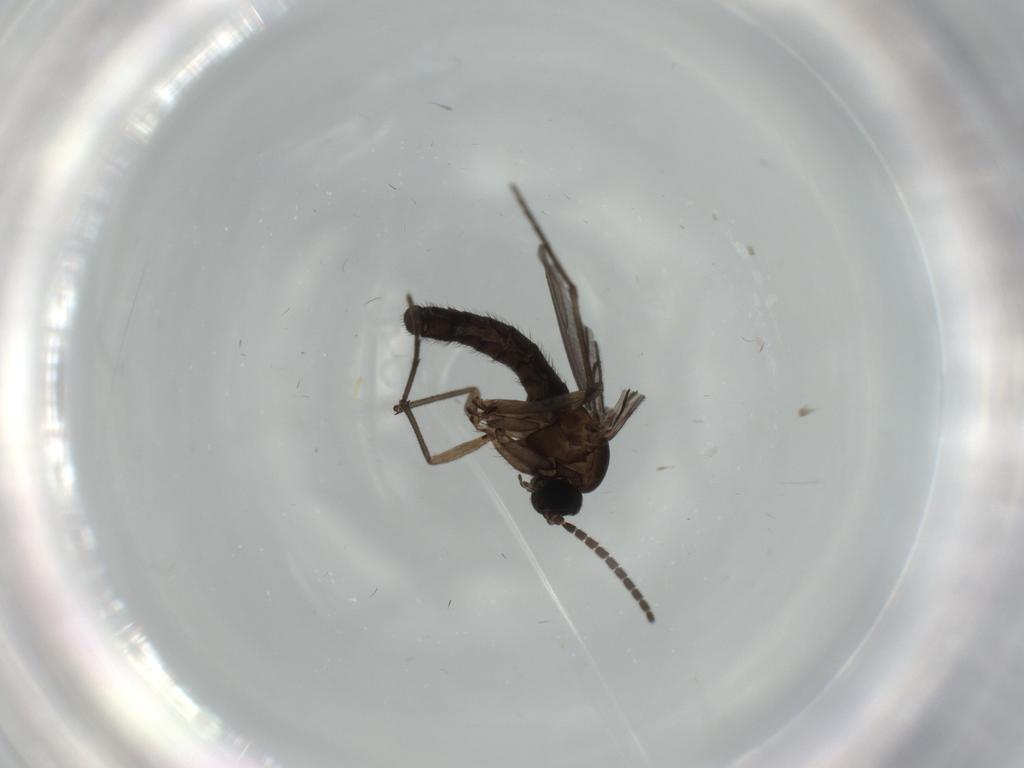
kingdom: Animalia
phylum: Arthropoda
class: Insecta
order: Diptera
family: Sciaridae
